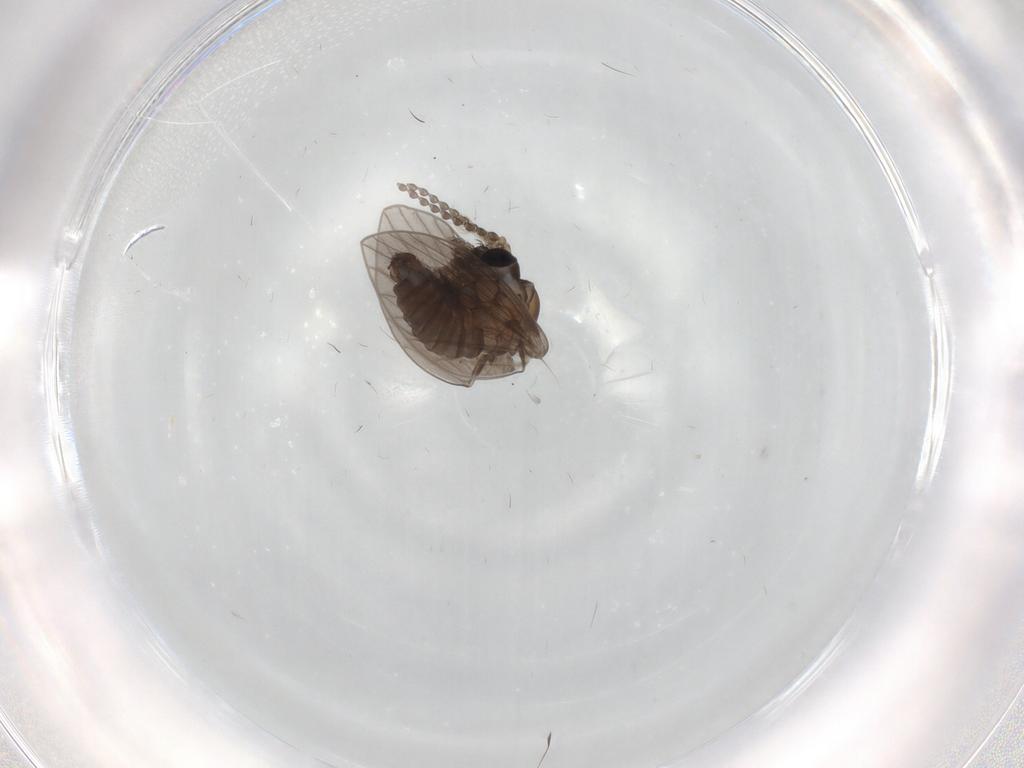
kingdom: Animalia
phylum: Arthropoda
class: Insecta
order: Diptera
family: Psychodidae
